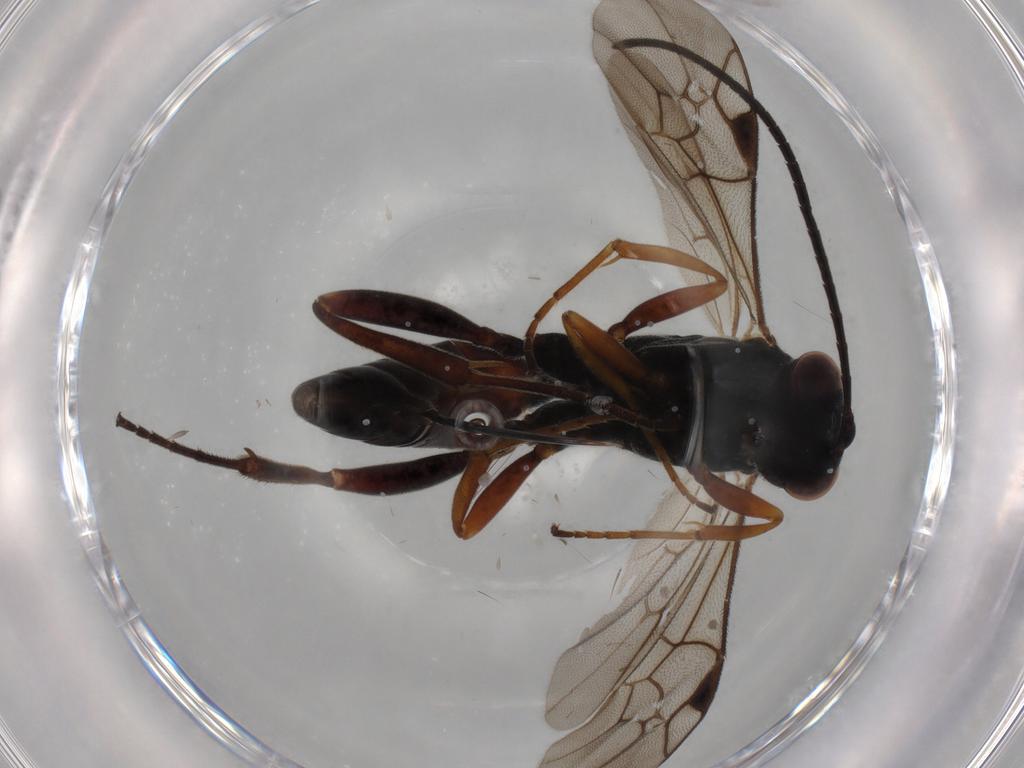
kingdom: Animalia
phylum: Arthropoda
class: Insecta
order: Hymenoptera
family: Ichneumonidae
